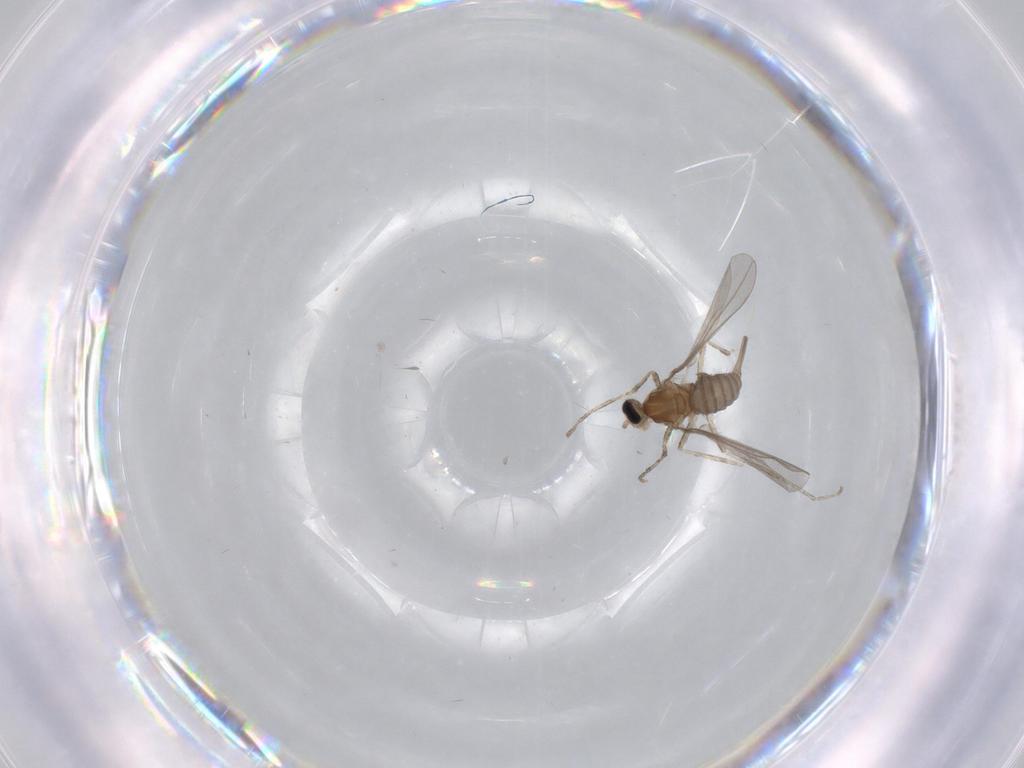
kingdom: Animalia
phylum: Arthropoda
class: Insecta
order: Diptera
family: Cecidomyiidae
